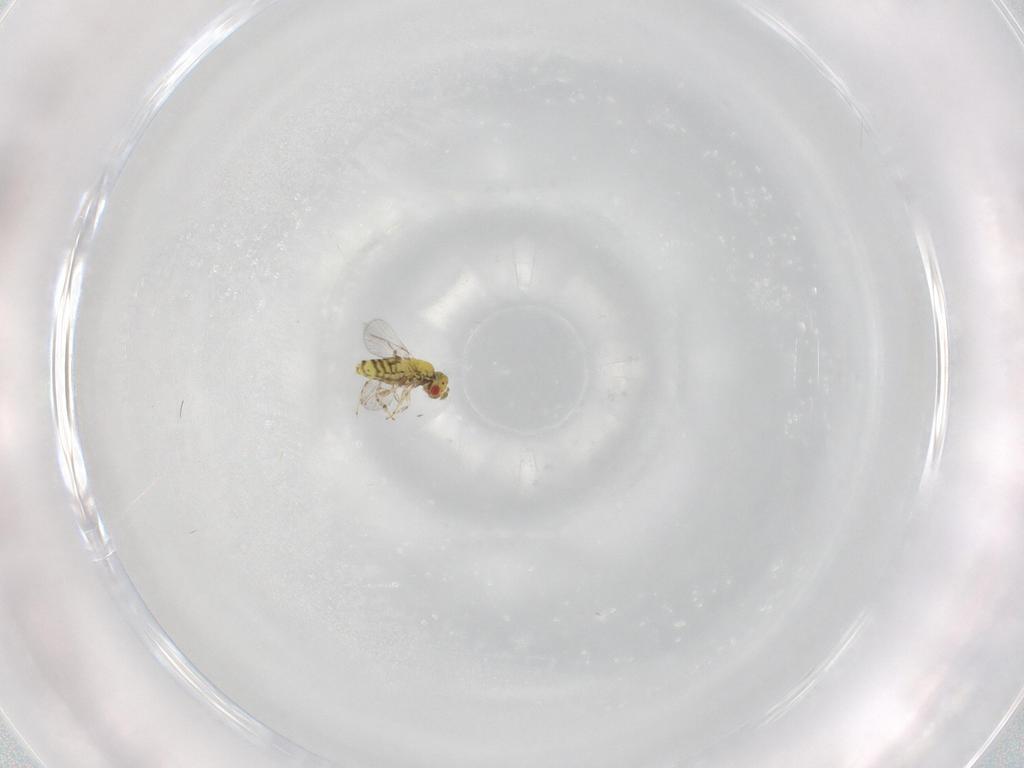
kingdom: Animalia
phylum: Arthropoda
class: Insecta
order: Hymenoptera
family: Trichogrammatidae
